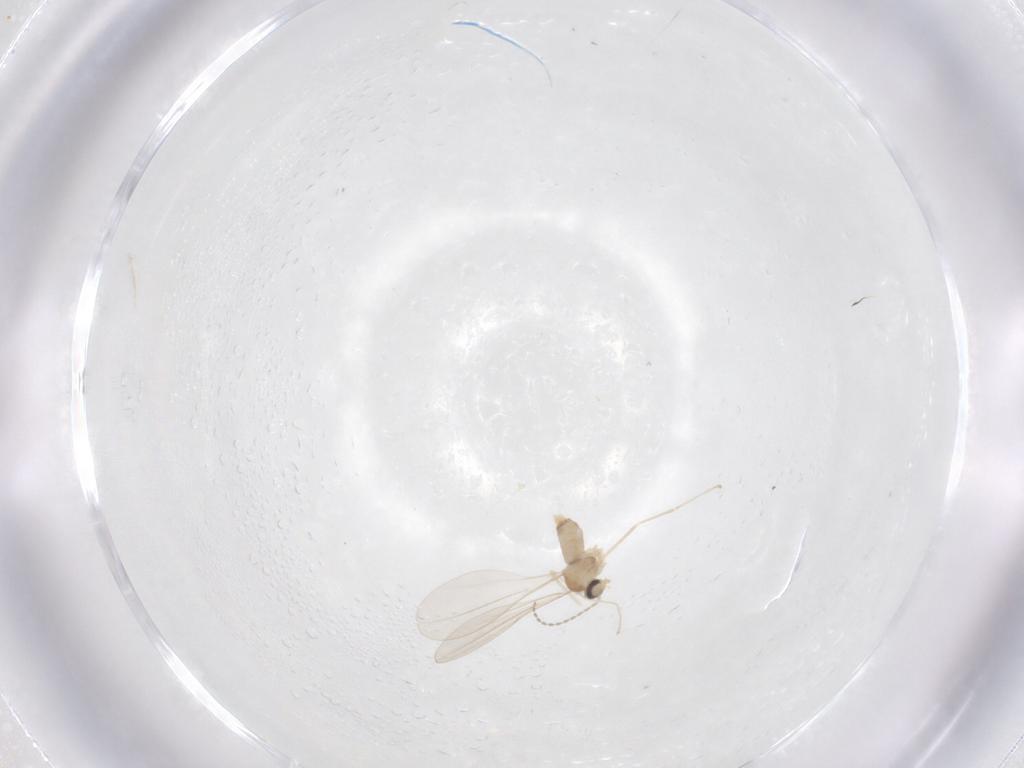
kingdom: Animalia
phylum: Arthropoda
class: Insecta
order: Diptera
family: Cecidomyiidae
